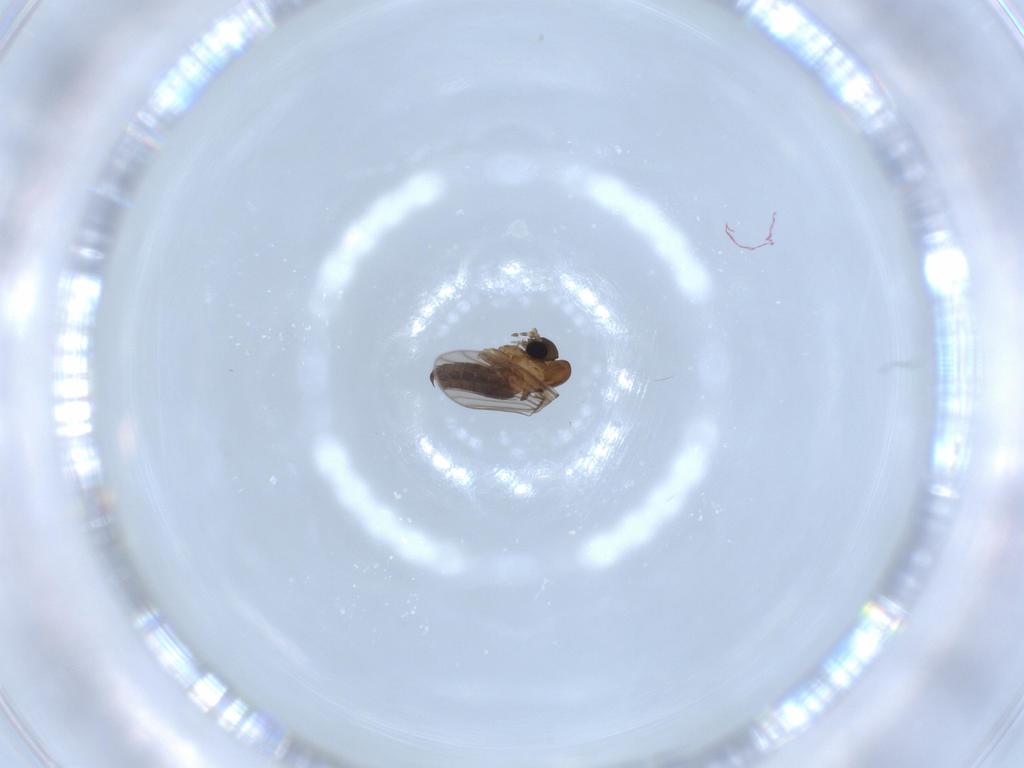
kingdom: Animalia
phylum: Arthropoda
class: Insecta
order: Diptera
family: Psychodidae
